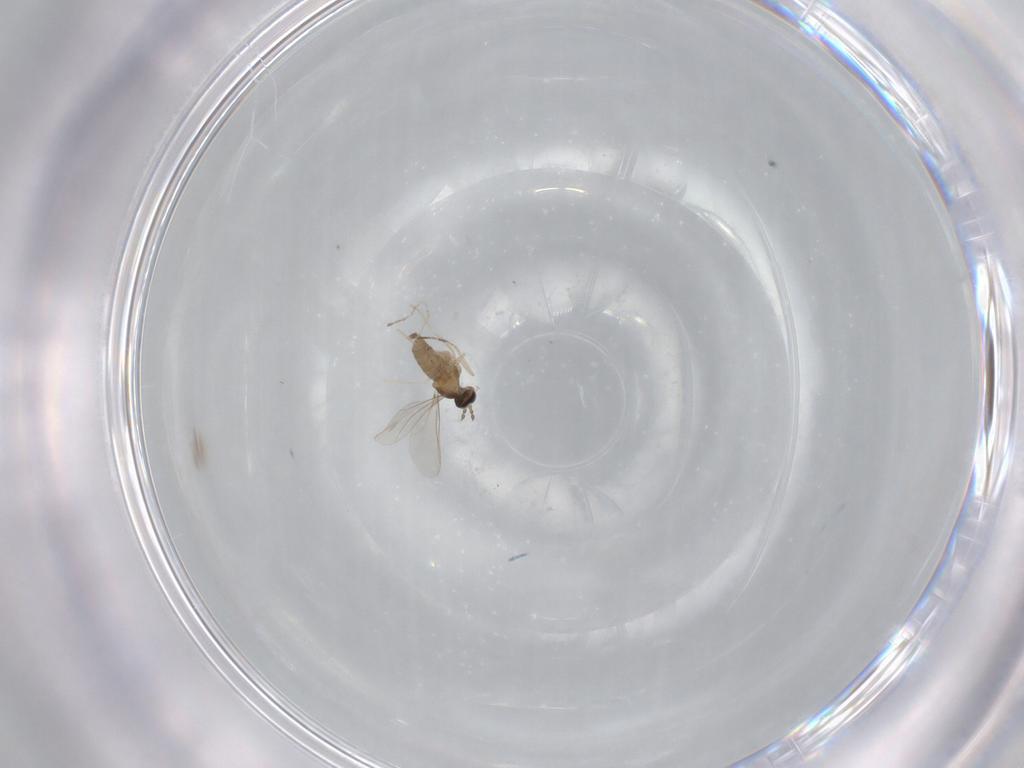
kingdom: Animalia
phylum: Arthropoda
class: Insecta
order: Diptera
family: Cecidomyiidae
